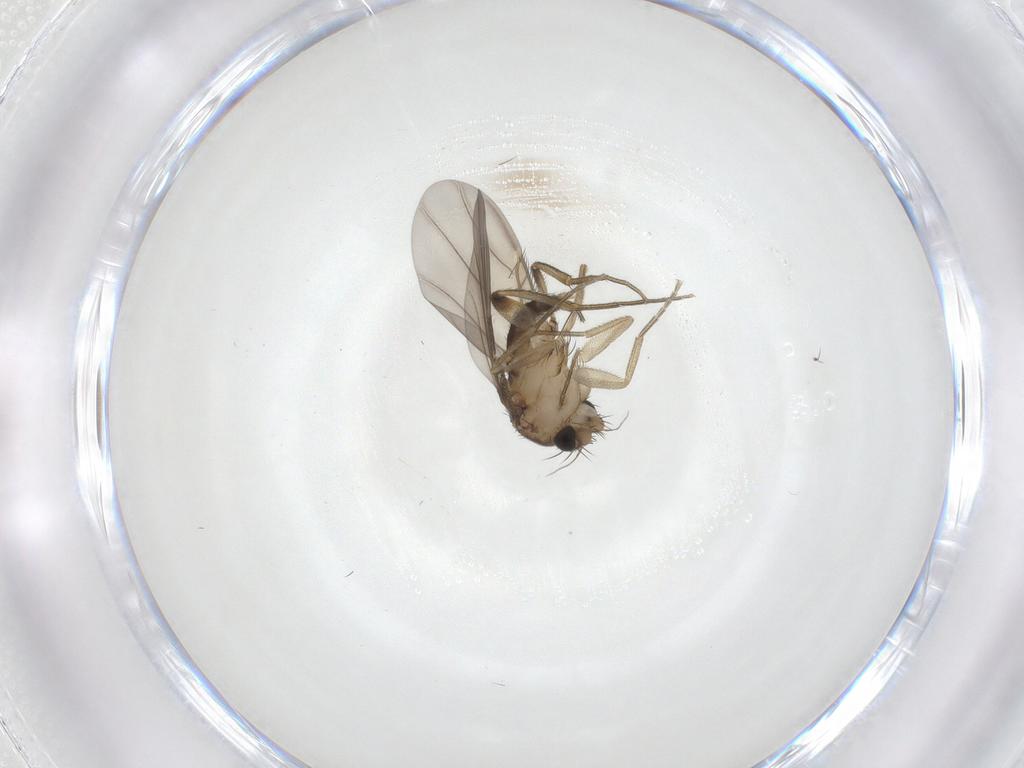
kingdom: Animalia
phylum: Arthropoda
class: Insecta
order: Diptera
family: Phoridae
